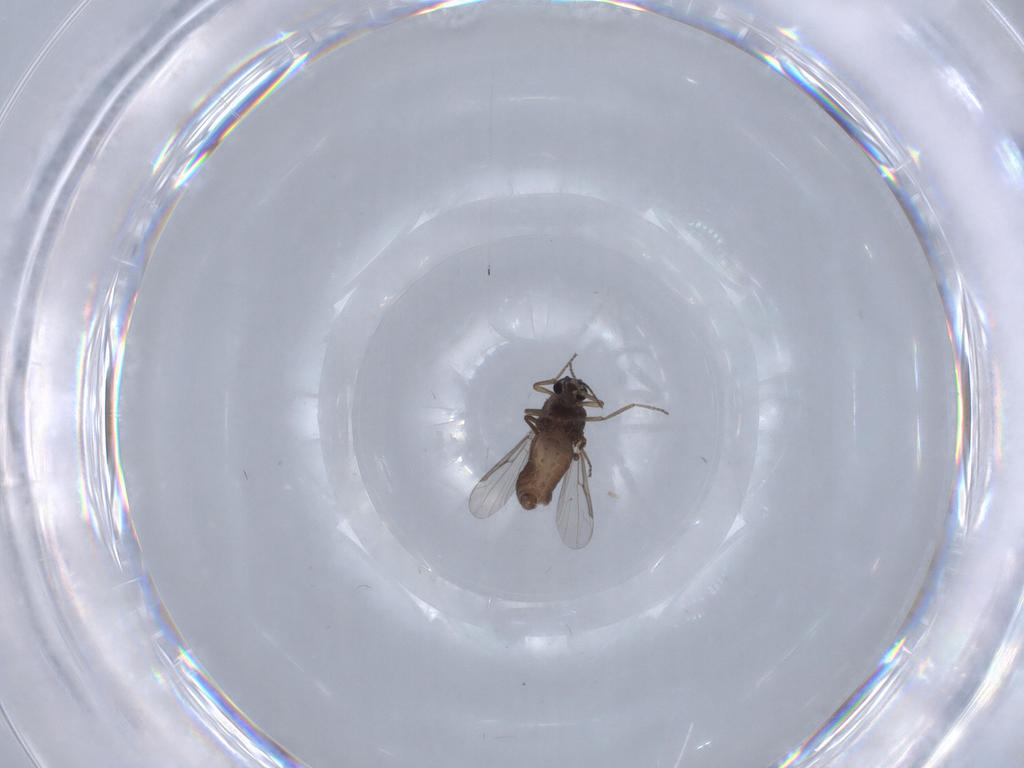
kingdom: Animalia
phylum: Arthropoda
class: Insecta
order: Diptera
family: Ceratopogonidae
